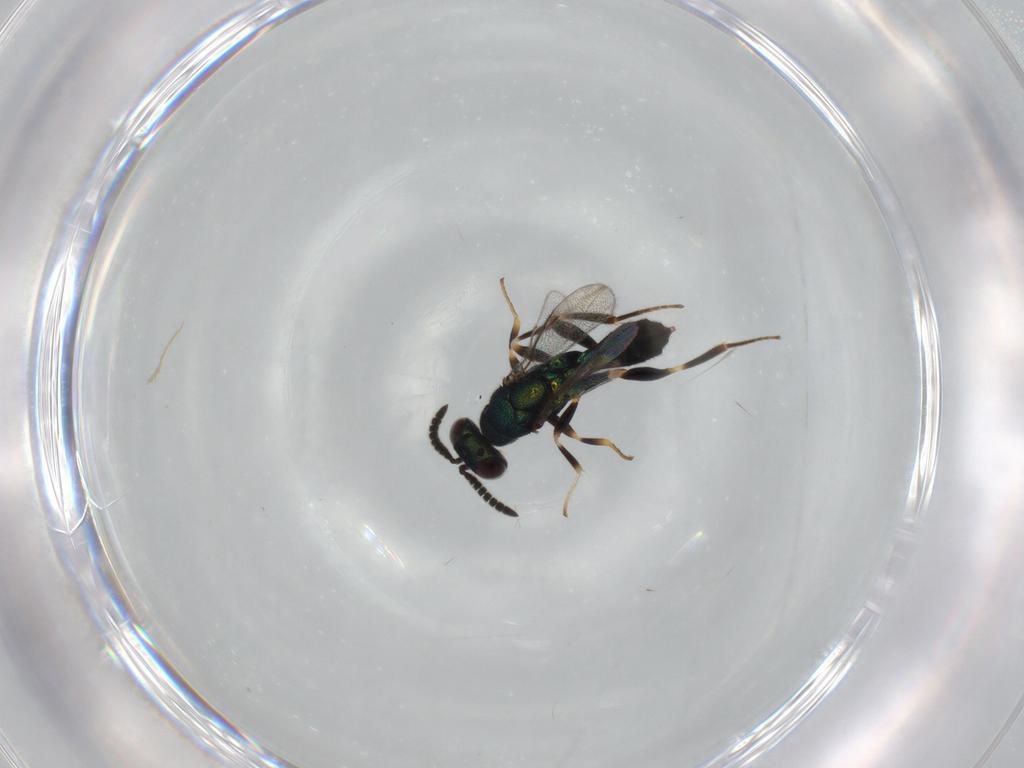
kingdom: Animalia
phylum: Arthropoda
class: Insecta
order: Hymenoptera
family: Cleonyminae
